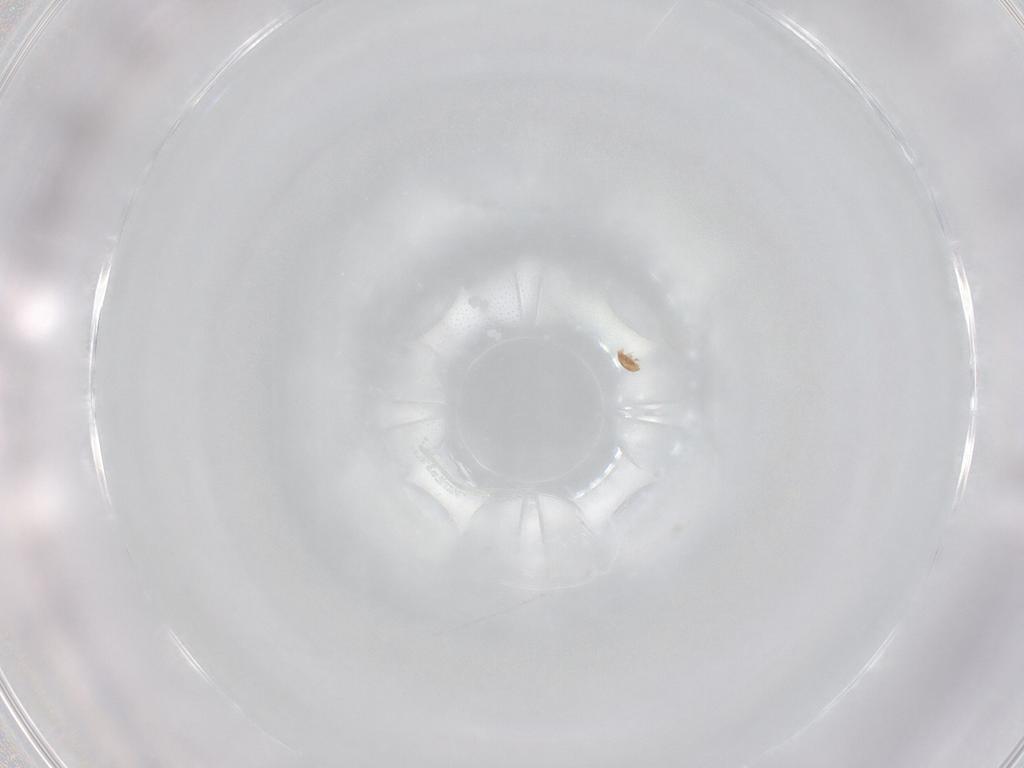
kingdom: Animalia
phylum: Arthropoda
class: Arachnida
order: Trombidiformes
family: Scutacaridae
